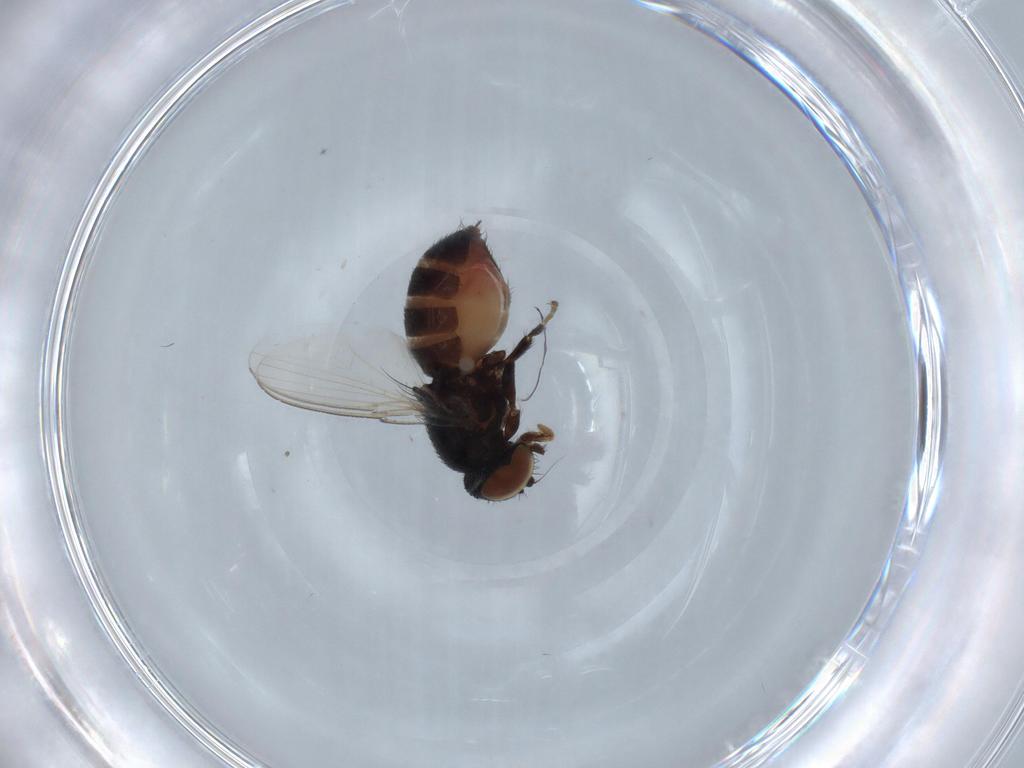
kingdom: Animalia
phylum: Arthropoda
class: Insecta
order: Diptera
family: Milichiidae
